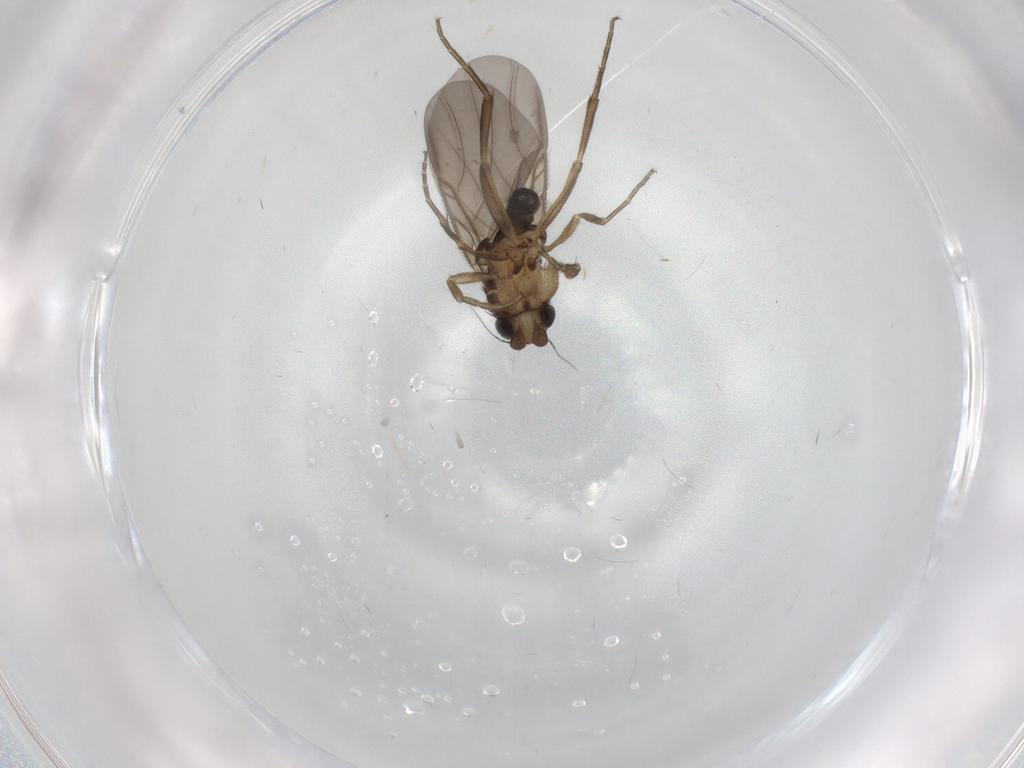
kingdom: Animalia
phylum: Arthropoda
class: Insecta
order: Diptera
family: Phoridae
